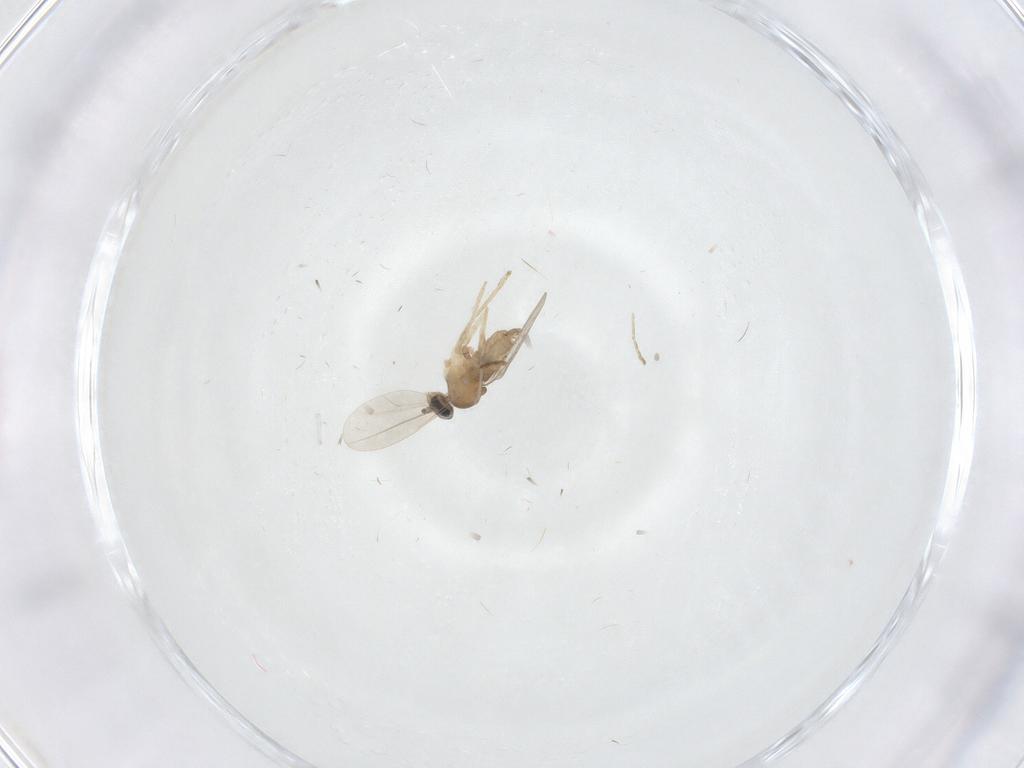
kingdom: Animalia
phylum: Arthropoda
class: Insecta
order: Diptera
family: Cecidomyiidae
